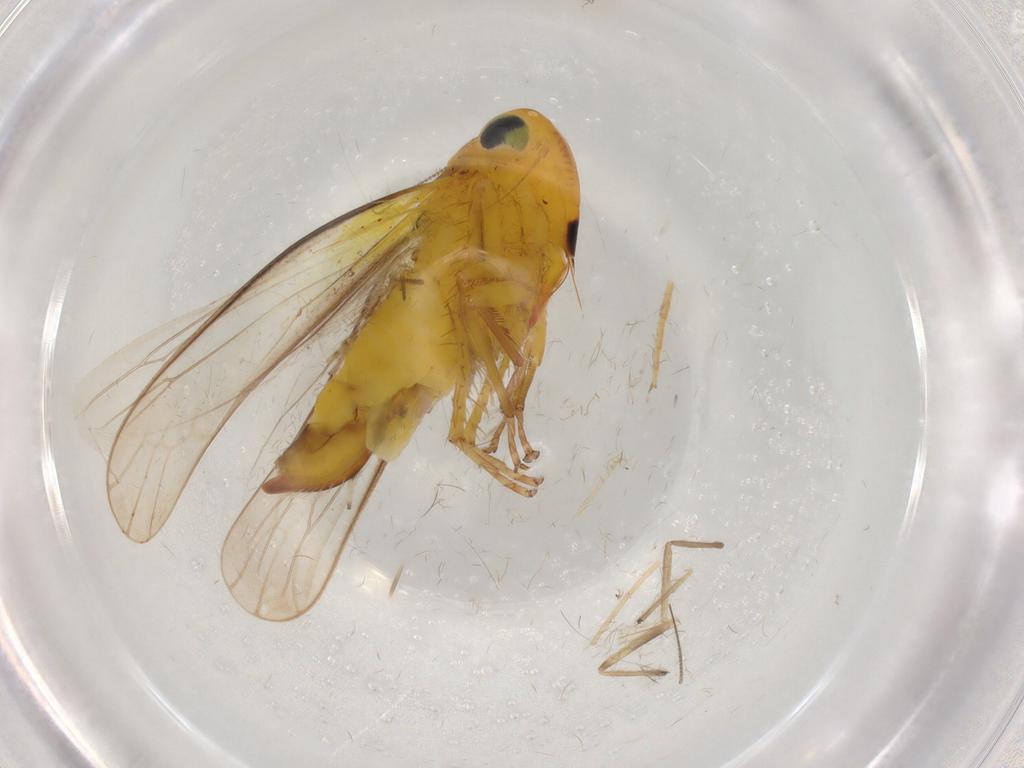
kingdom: Animalia
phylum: Arthropoda
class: Insecta
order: Hemiptera
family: Cicadellidae
